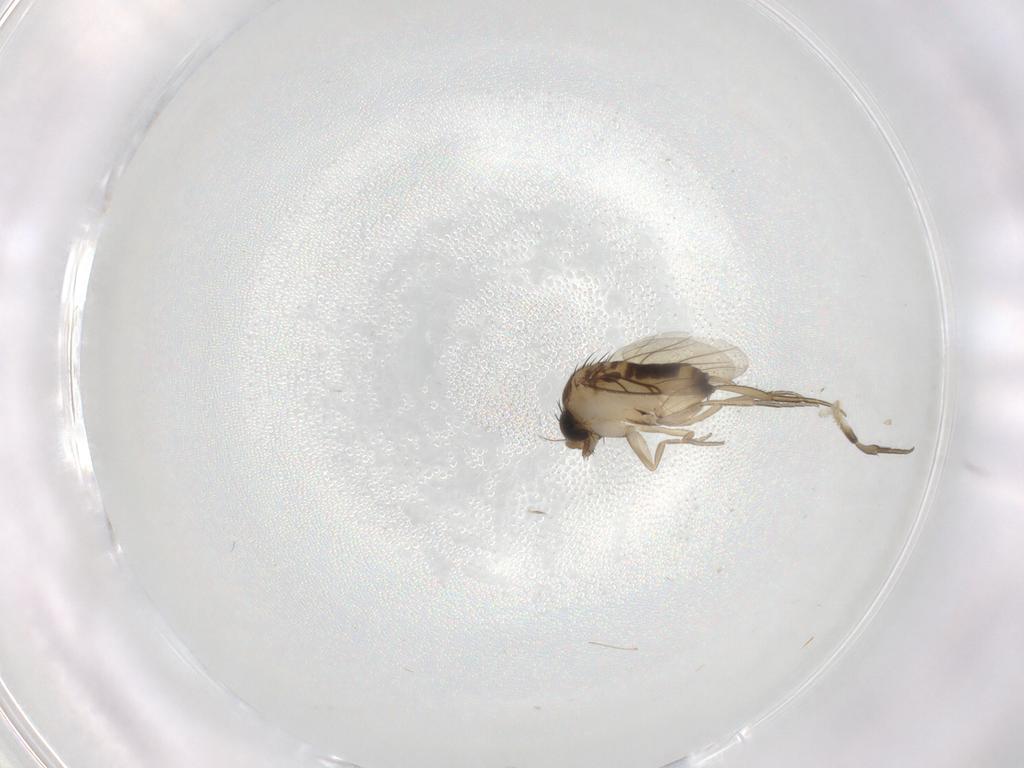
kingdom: Animalia
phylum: Arthropoda
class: Insecta
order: Diptera
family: Phoridae
